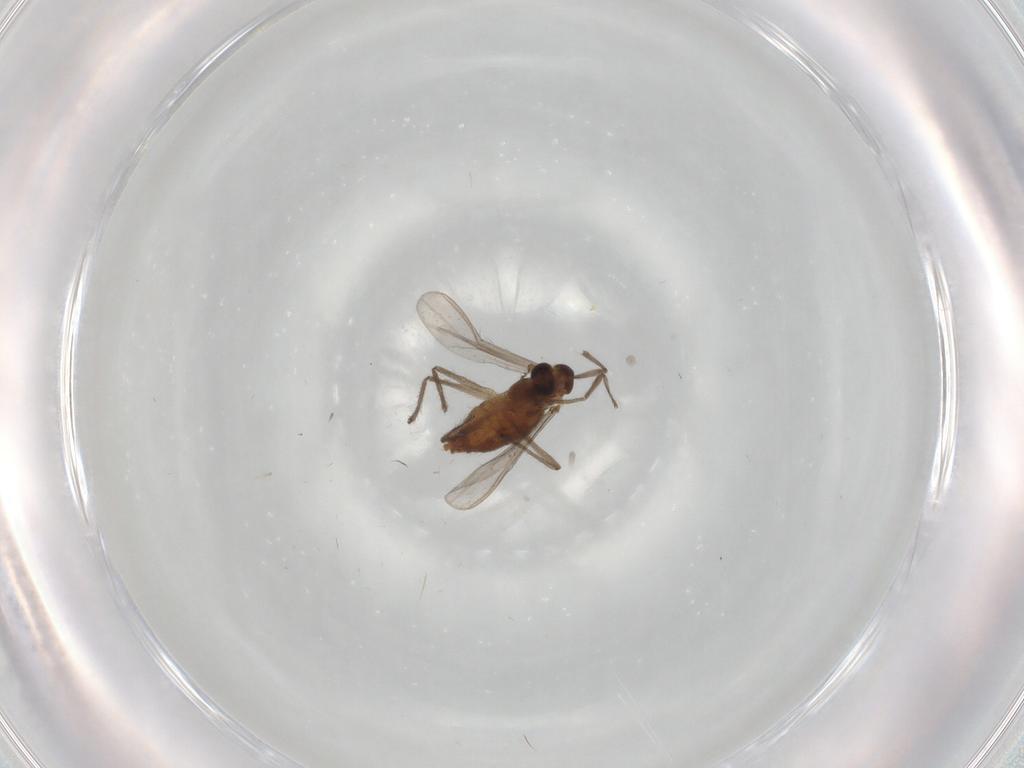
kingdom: Animalia
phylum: Arthropoda
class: Insecta
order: Diptera
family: Chironomidae
